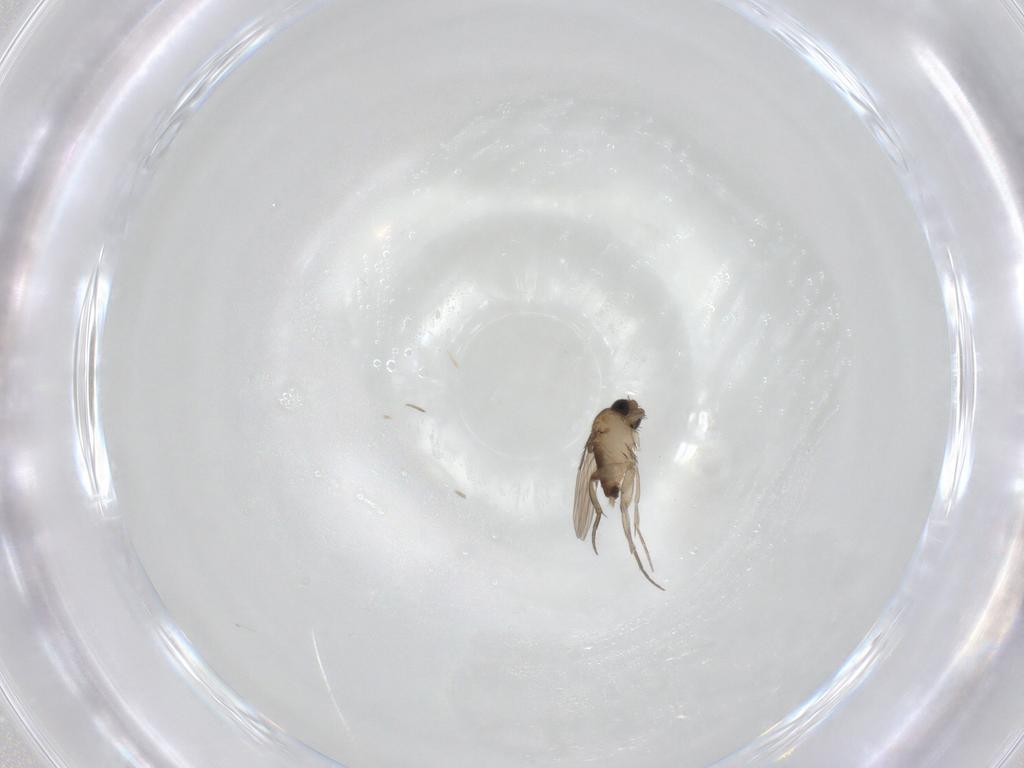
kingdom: Animalia
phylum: Arthropoda
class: Insecta
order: Diptera
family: Phoridae
